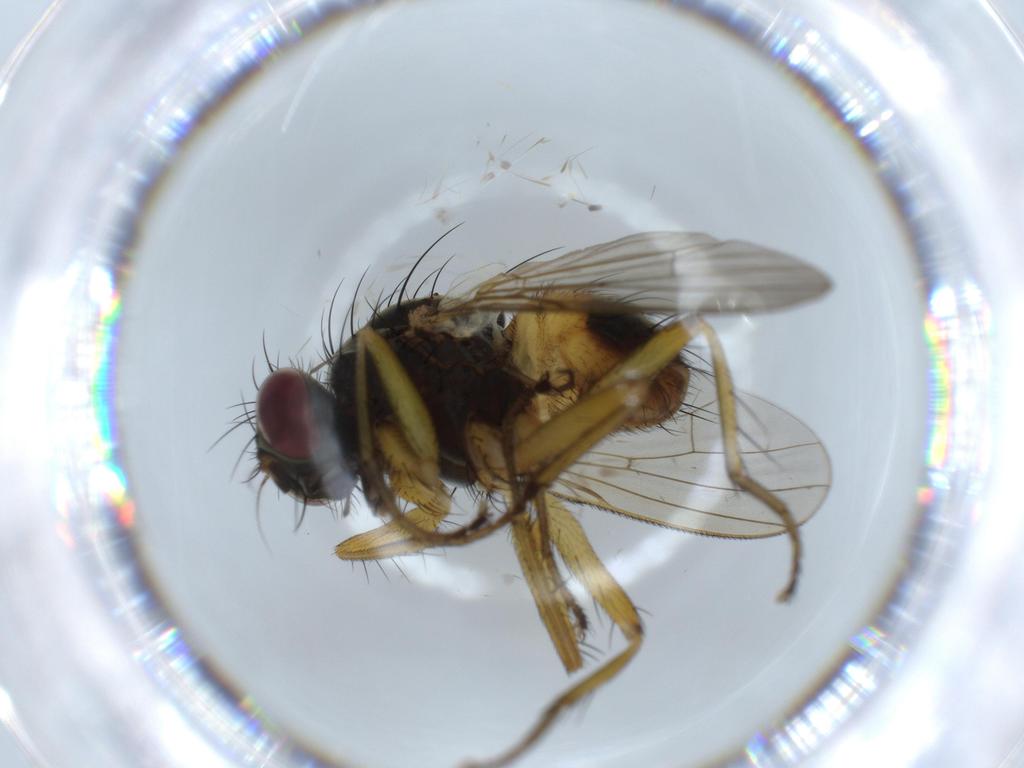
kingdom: Animalia
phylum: Arthropoda
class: Insecta
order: Diptera
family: Muscidae
